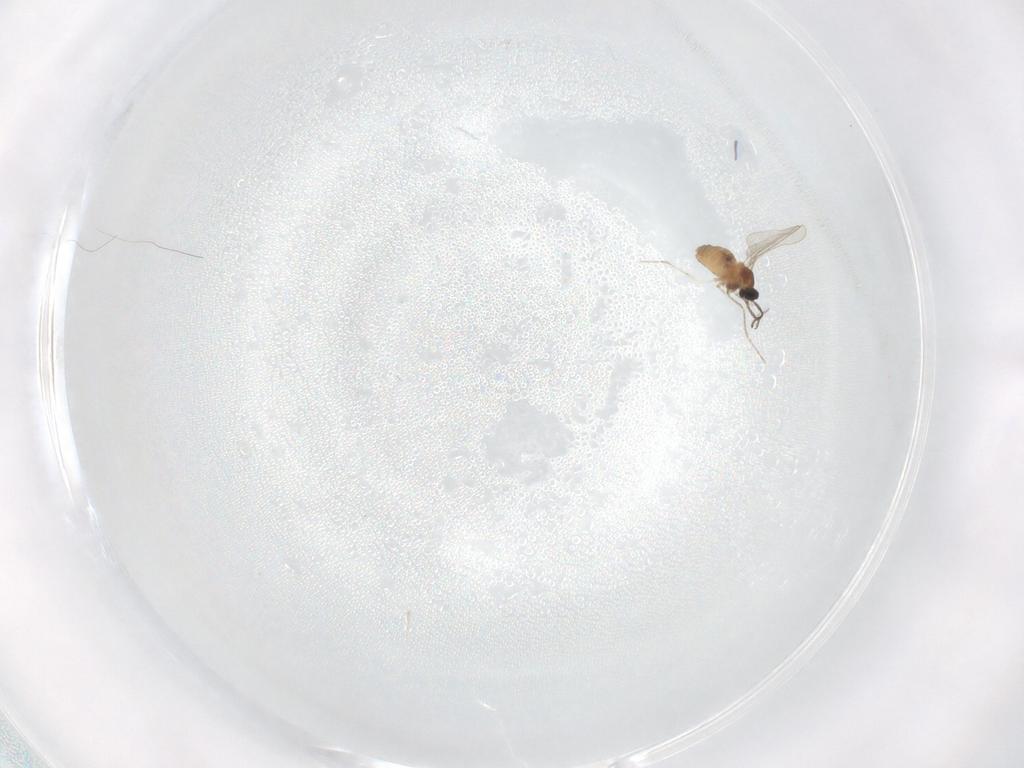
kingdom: Animalia
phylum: Arthropoda
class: Insecta
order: Diptera
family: Cecidomyiidae
